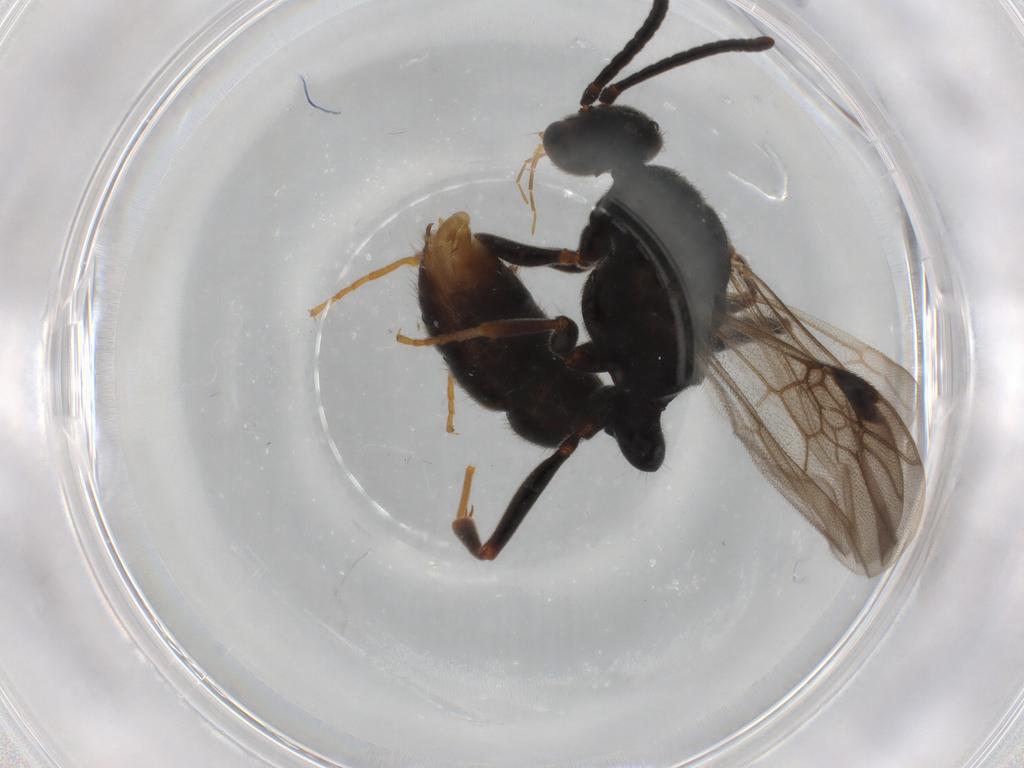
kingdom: Animalia
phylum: Arthropoda
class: Insecta
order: Hymenoptera
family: Formicidae
